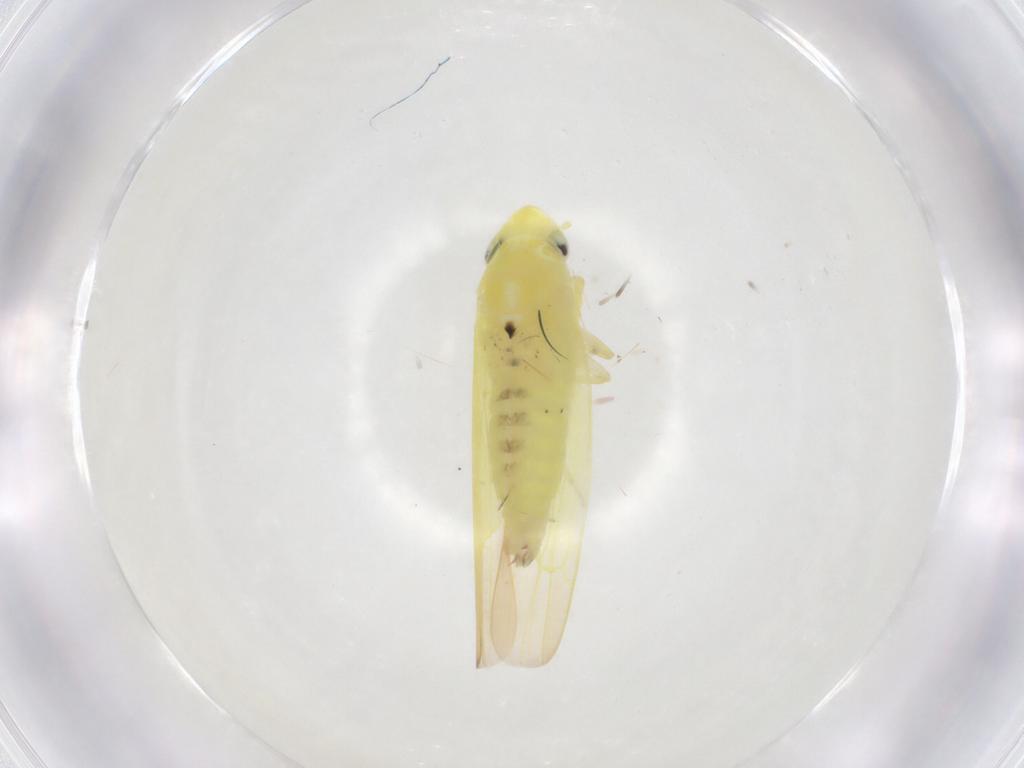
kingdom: Animalia
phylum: Arthropoda
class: Insecta
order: Hemiptera
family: Cicadellidae
